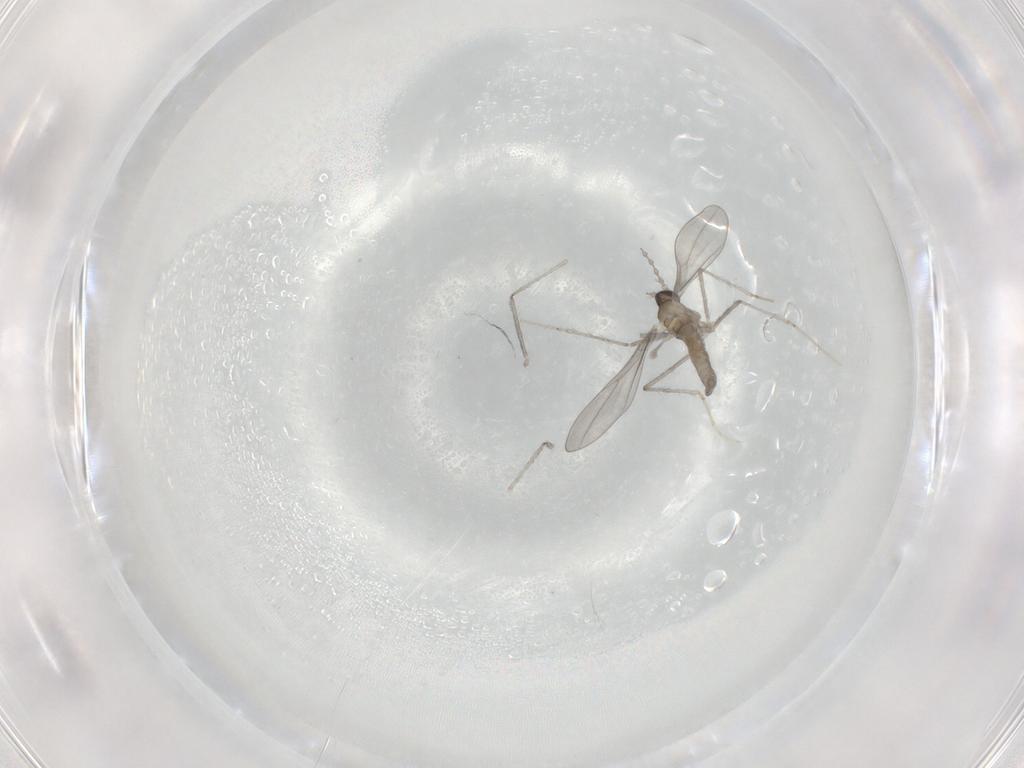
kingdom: Animalia
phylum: Arthropoda
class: Insecta
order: Diptera
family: Cecidomyiidae
